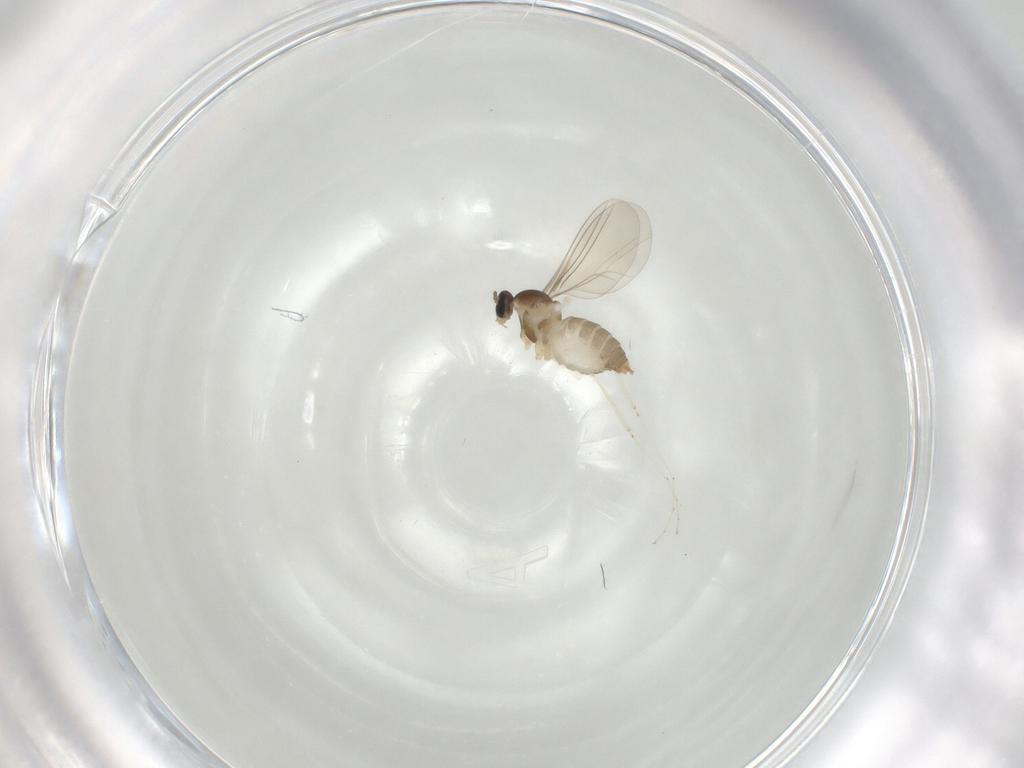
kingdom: Animalia
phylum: Arthropoda
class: Insecta
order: Diptera
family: Cecidomyiidae
